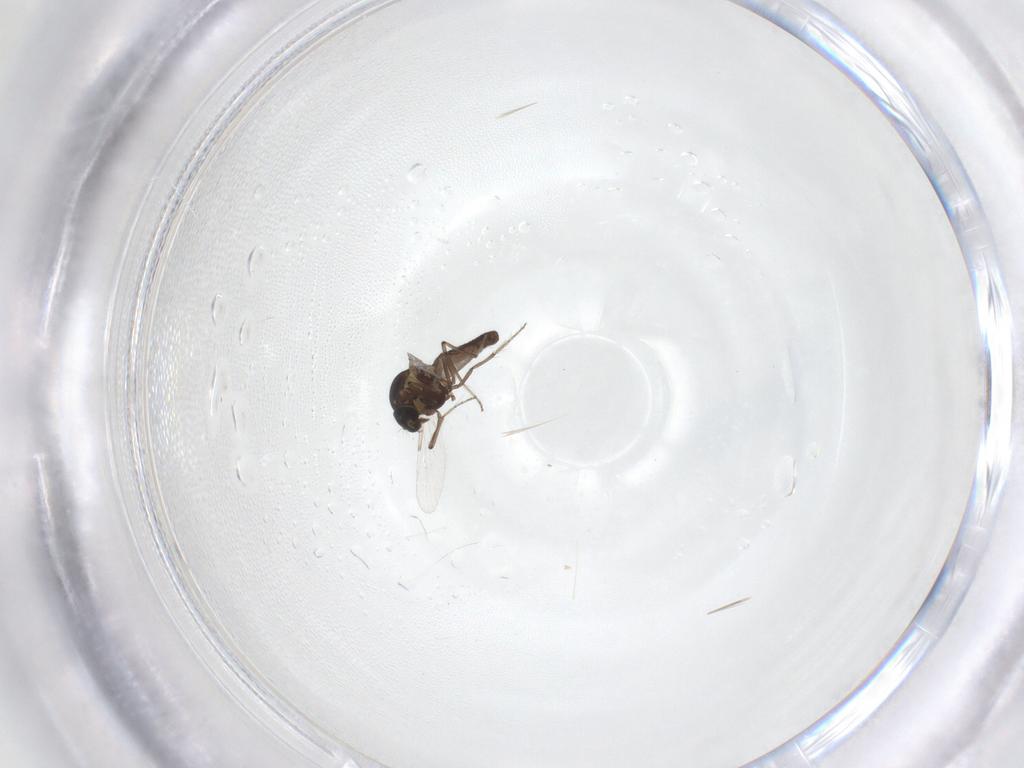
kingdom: Animalia
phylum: Arthropoda
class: Insecta
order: Diptera
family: Ceratopogonidae
